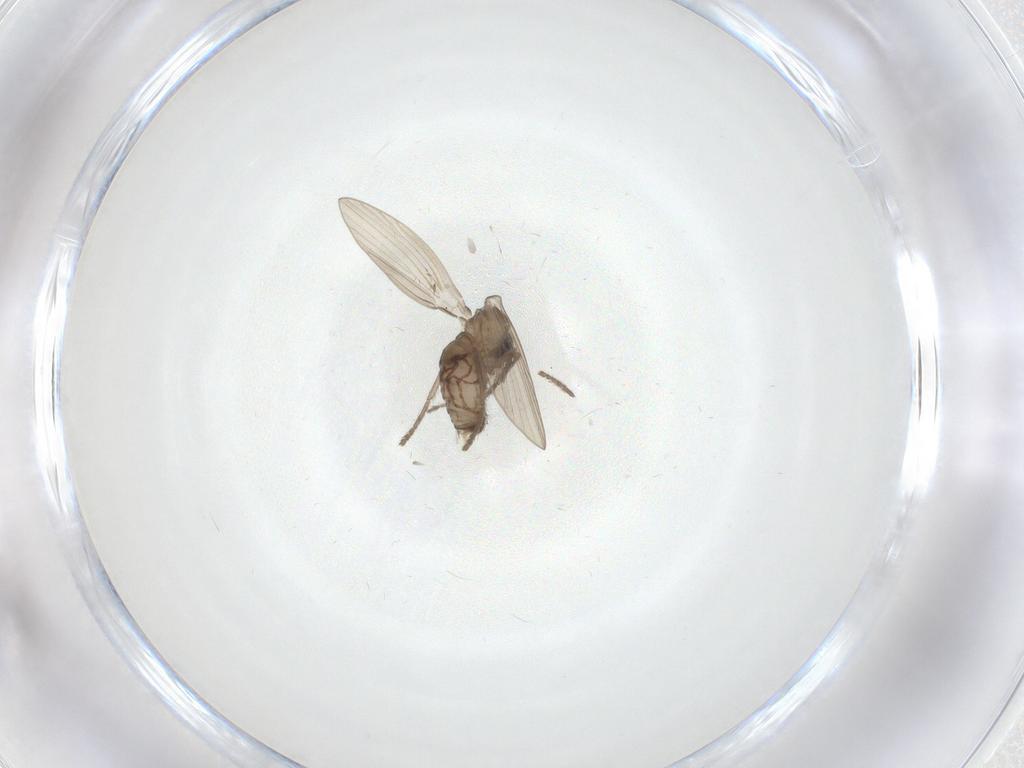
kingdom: Animalia
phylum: Arthropoda
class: Insecta
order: Diptera
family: Psychodidae
